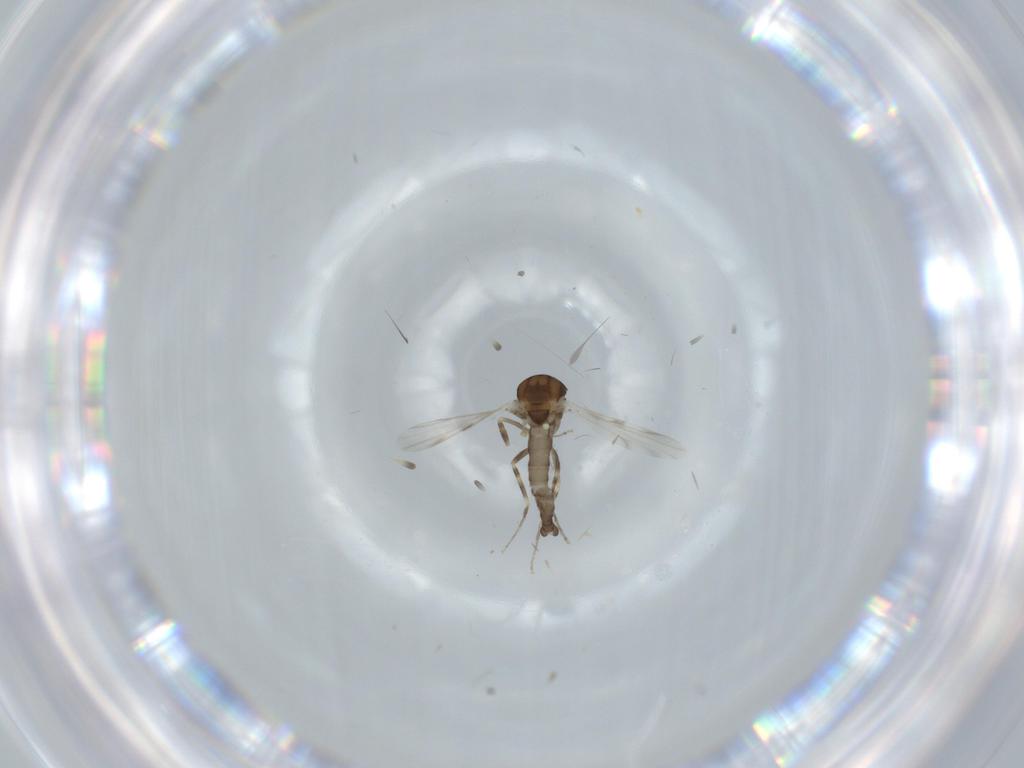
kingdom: Animalia
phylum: Arthropoda
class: Insecta
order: Diptera
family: Ceratopogonidae
